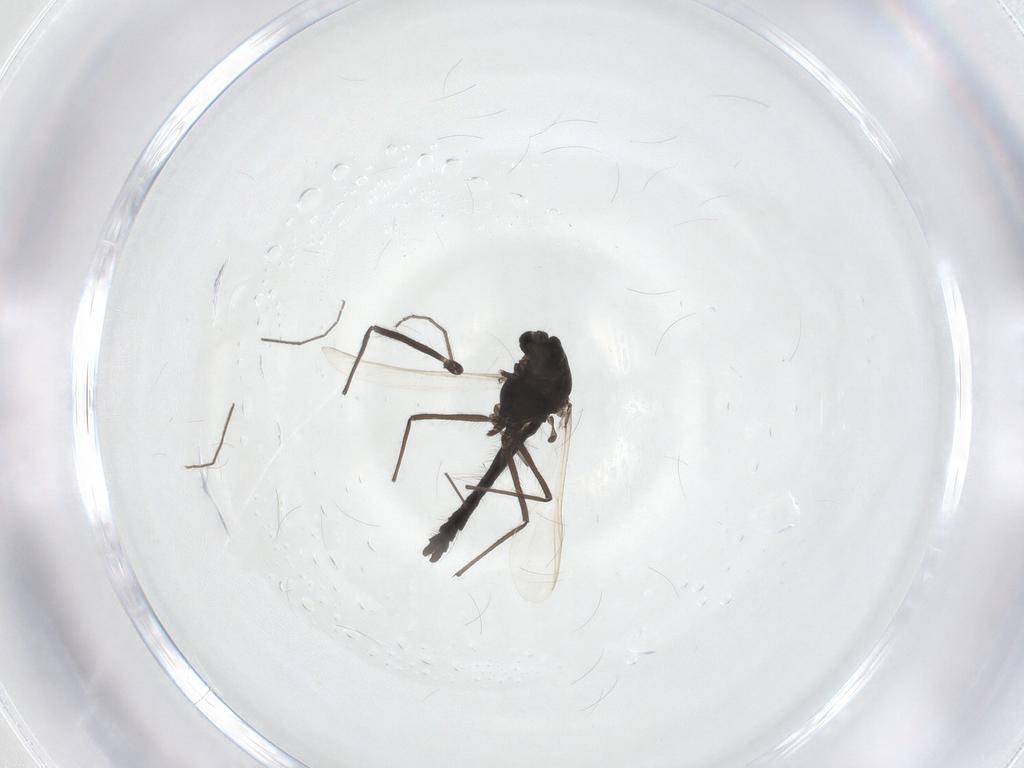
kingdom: Animalia
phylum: Arthropoda
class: Insecta
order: Diptera
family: Chironomidae
